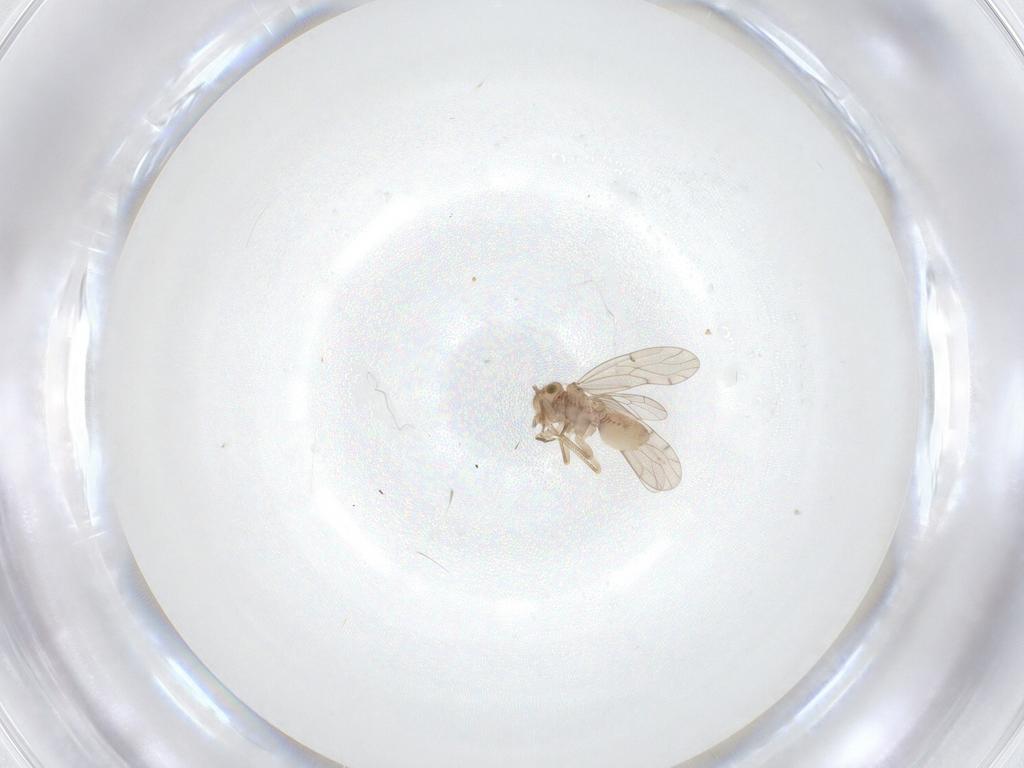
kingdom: Animalia
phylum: Arthropoda
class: Insecta
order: Psocodea
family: Ectopsocidae
